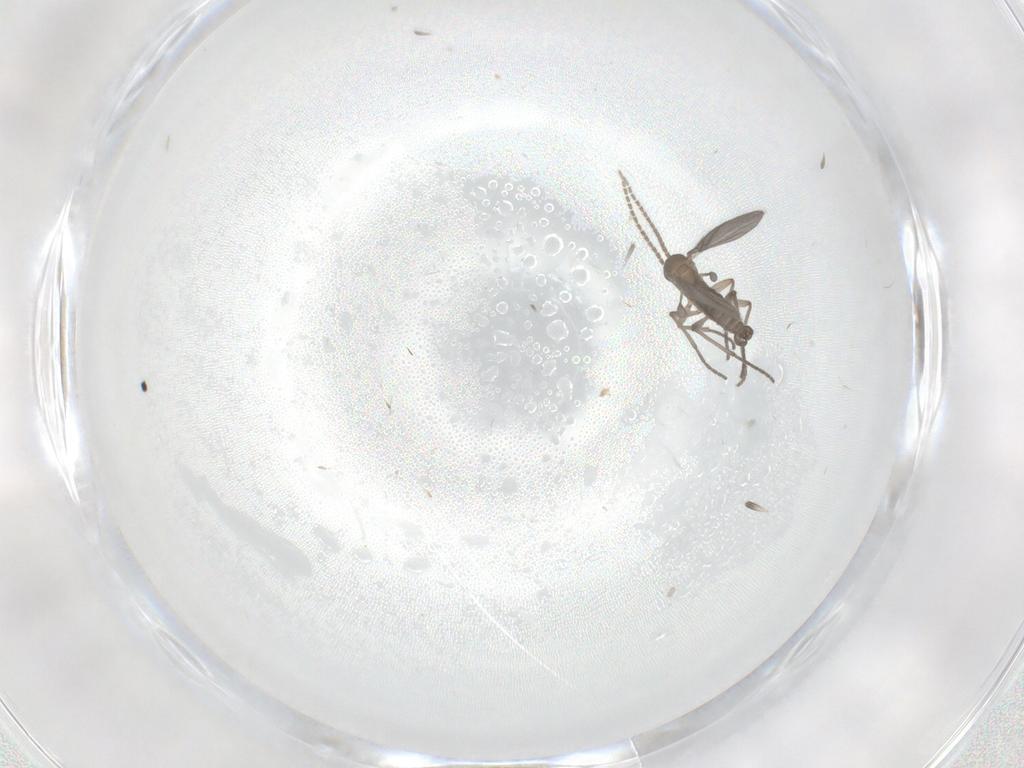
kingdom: Animalia
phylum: Arthropoda
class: Insecta
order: Diptera
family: Sciaridae
